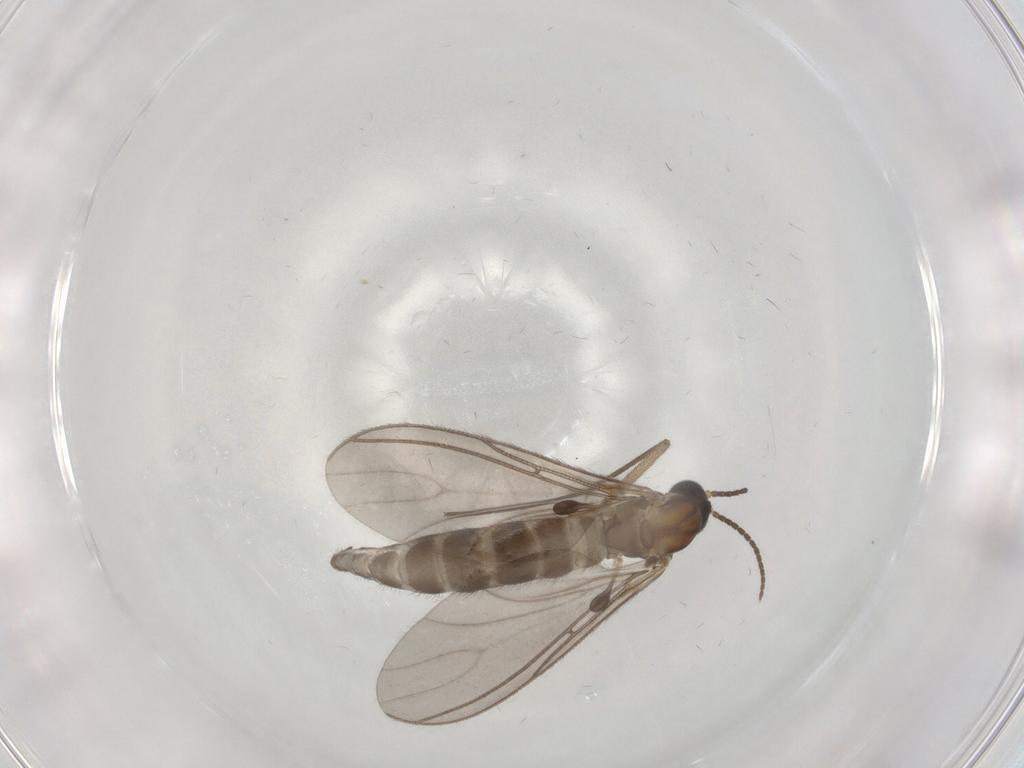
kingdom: Animalia
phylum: Arthropoda
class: Insecta
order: Diptera
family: Sciaridae
